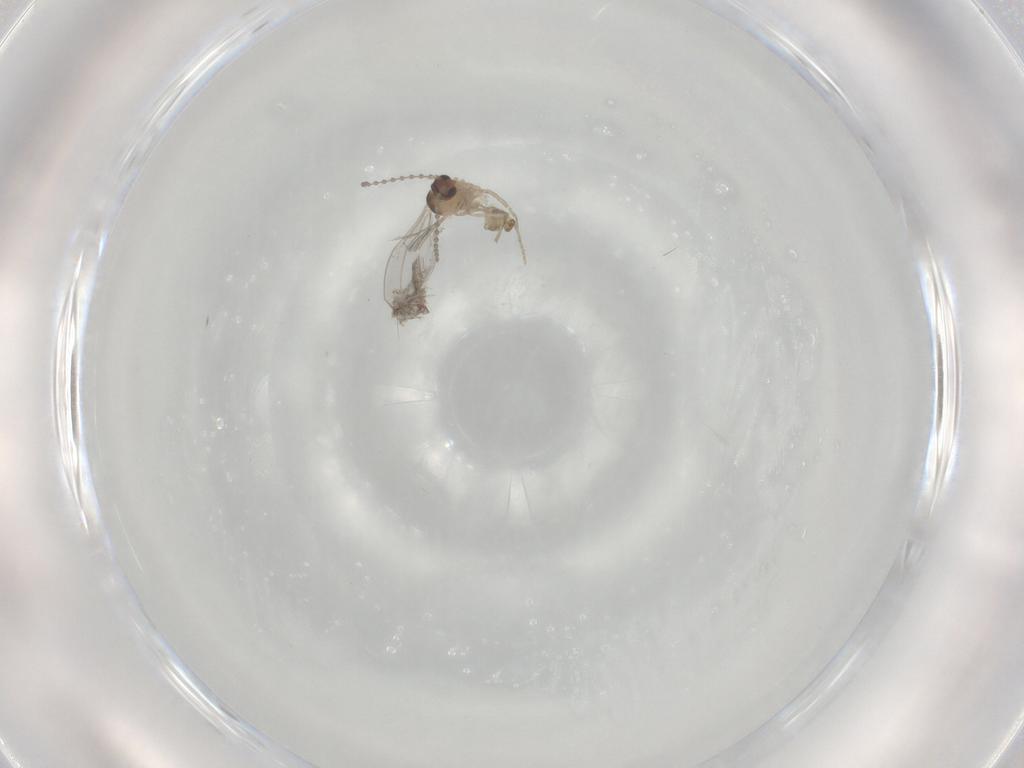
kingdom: Animalia
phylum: Arthropoda
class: Insecta
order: Diptera
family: Cecidomyiidae
